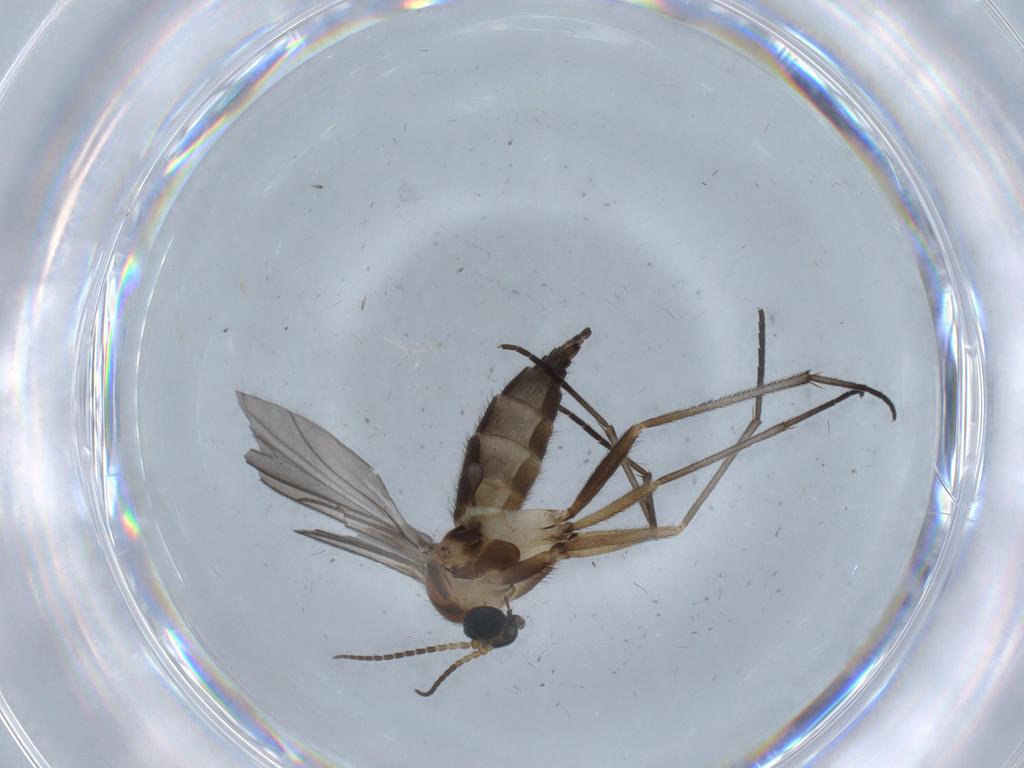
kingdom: Animalia
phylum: Arthropoda
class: Insecta
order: Diptera
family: Sciaridae
